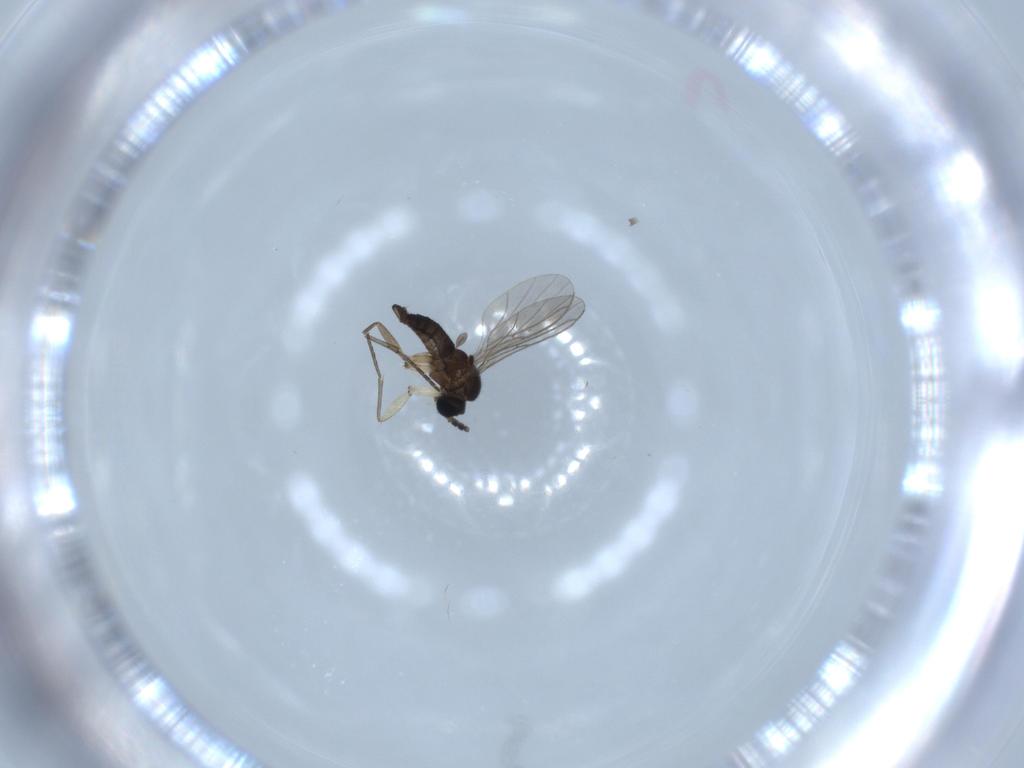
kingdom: Animalia
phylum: Arthropoda
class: Insecta
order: Diptera
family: Sciaridae
